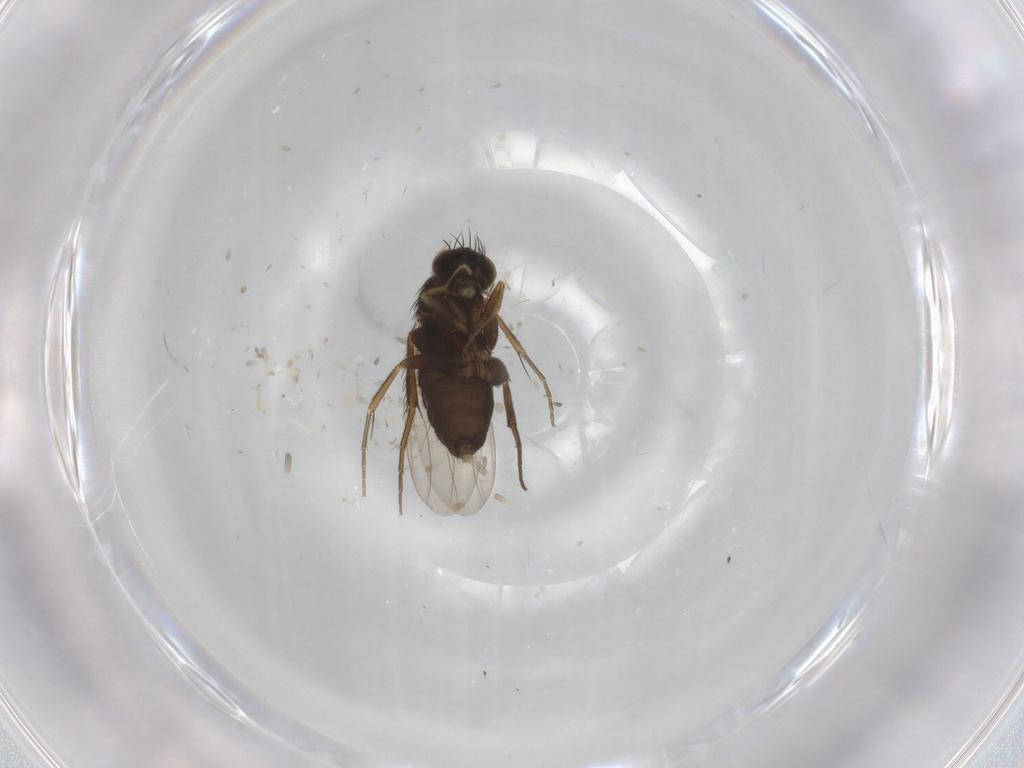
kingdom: Animalia
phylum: Arthropoda
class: Insecta
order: Diptera
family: Phoridae
